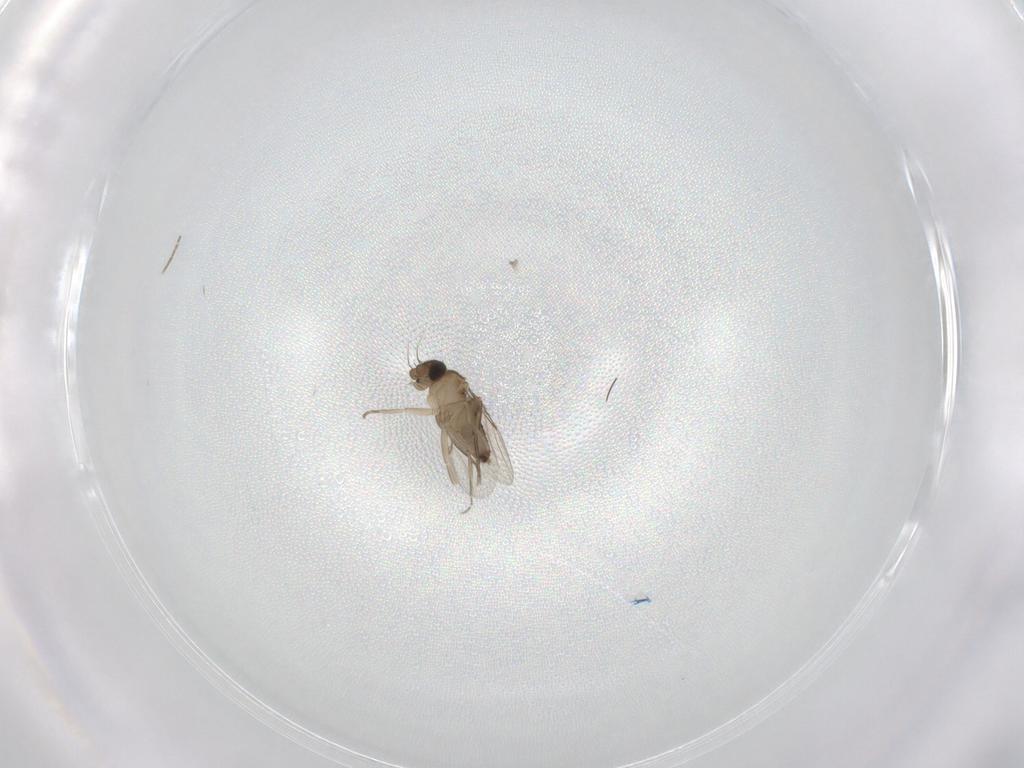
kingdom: Animalia
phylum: Arthropoda
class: Insecta
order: Diptera
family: Phoridae
